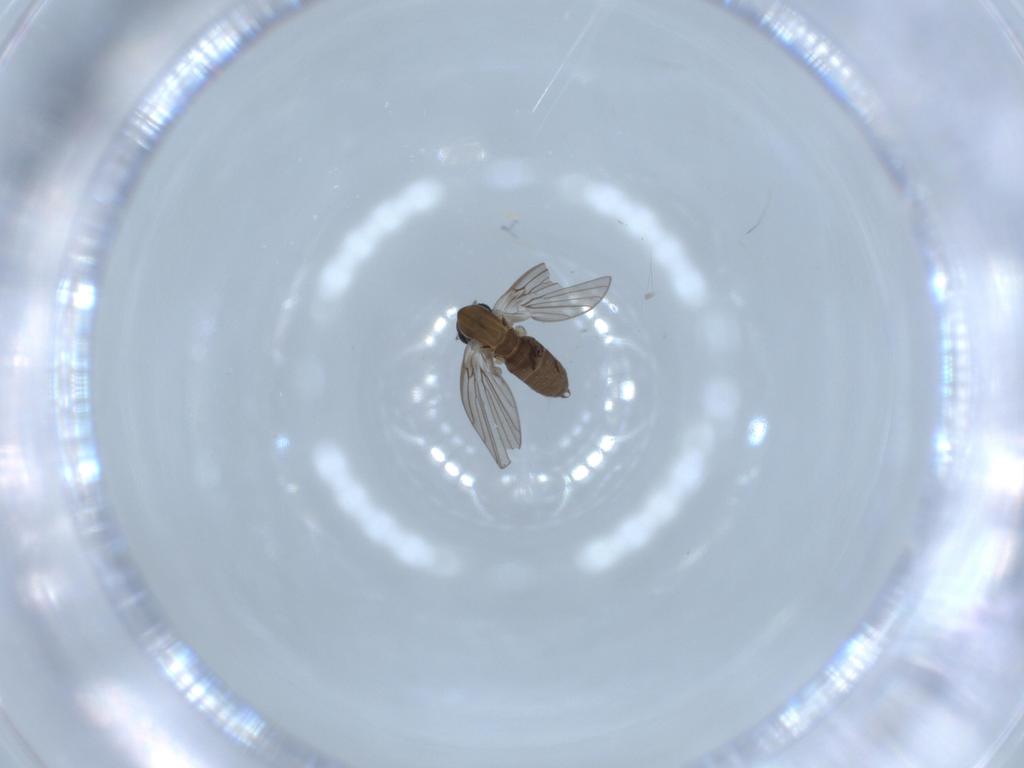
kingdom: Animalia
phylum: Arthropoda
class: Insecta
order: Diptera
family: Psychodidae
